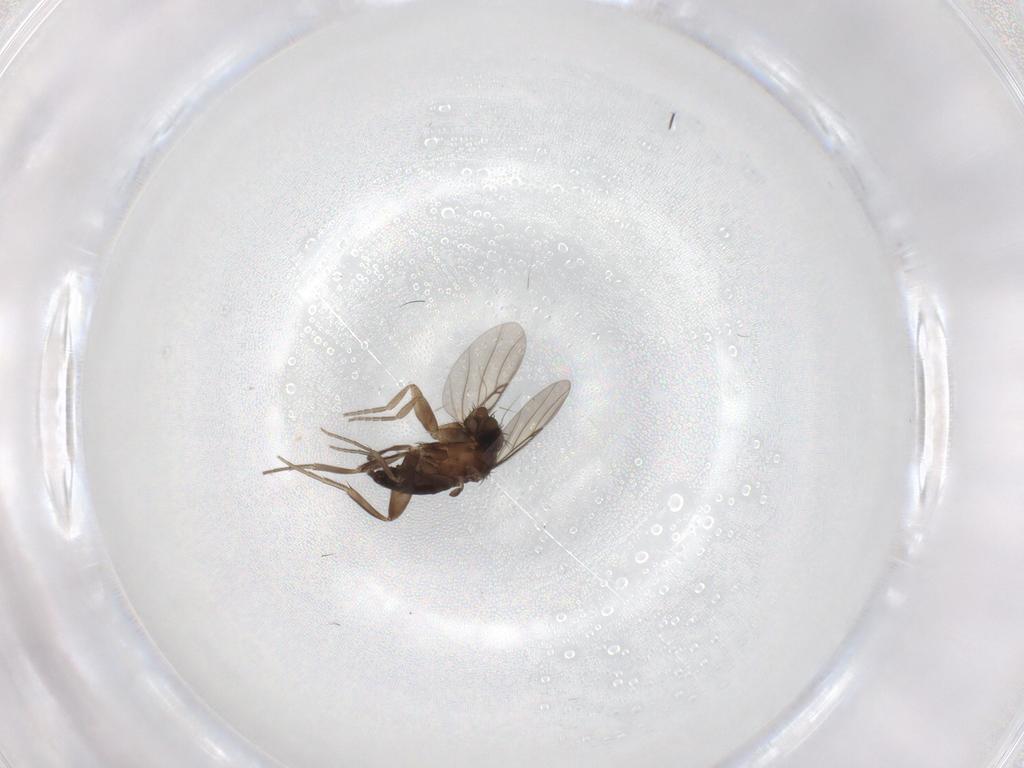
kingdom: Animalia
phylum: Arthropoda
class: Insecta
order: Diptera
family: Phoridae
